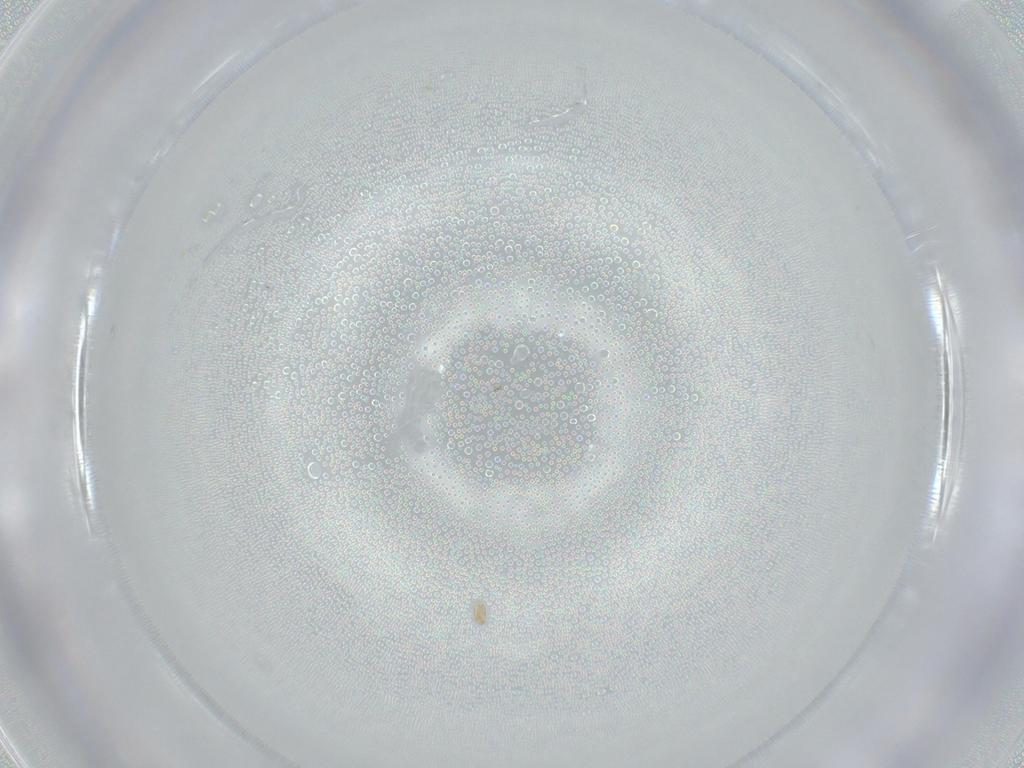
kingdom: Animalia
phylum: Arthropoda
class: Insecta
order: Diptera
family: Sciaridae
